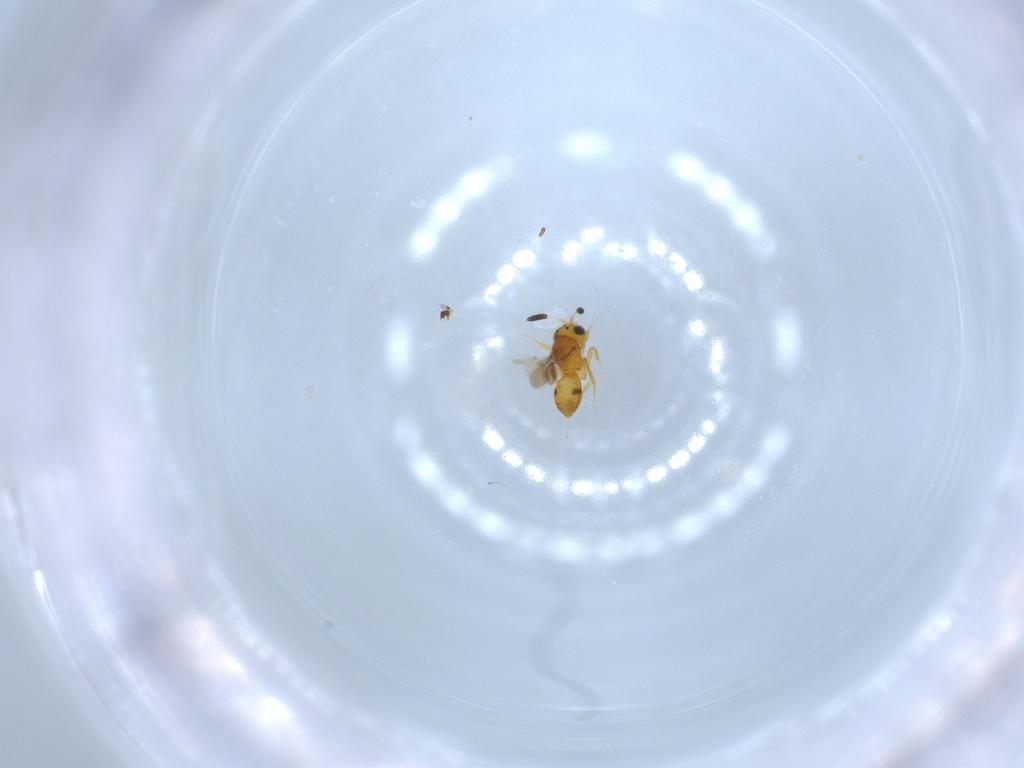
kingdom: Animalia
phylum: Arthropoda
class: Insecta
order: Hymenoptera
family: Scelionidae
